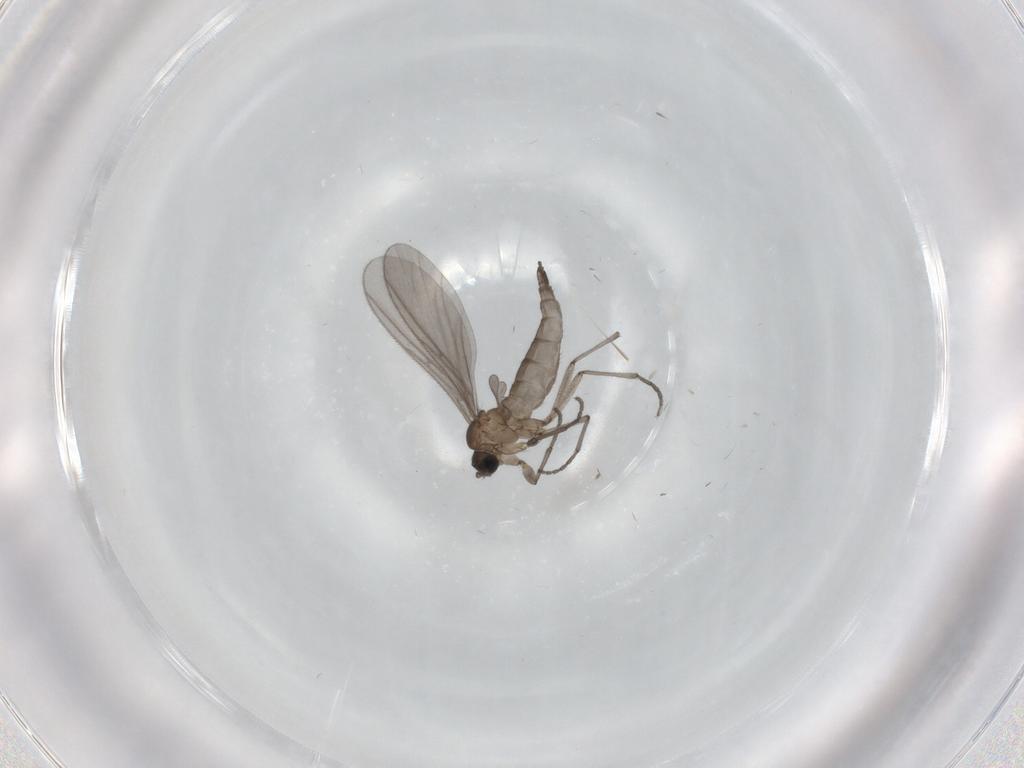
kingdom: Animalia
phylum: Arthropoda
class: Insecta
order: Diptera
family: Sciaridae
